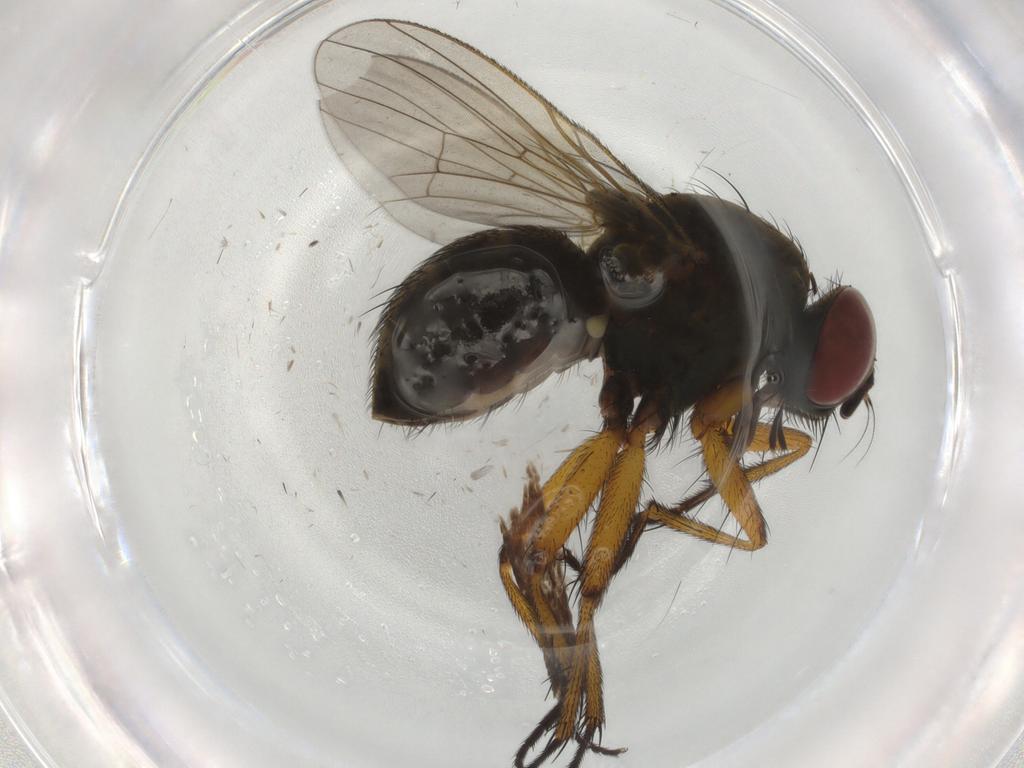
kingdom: Animalia
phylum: Arthropoda
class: Insecta
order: Diptera
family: Muscidae
